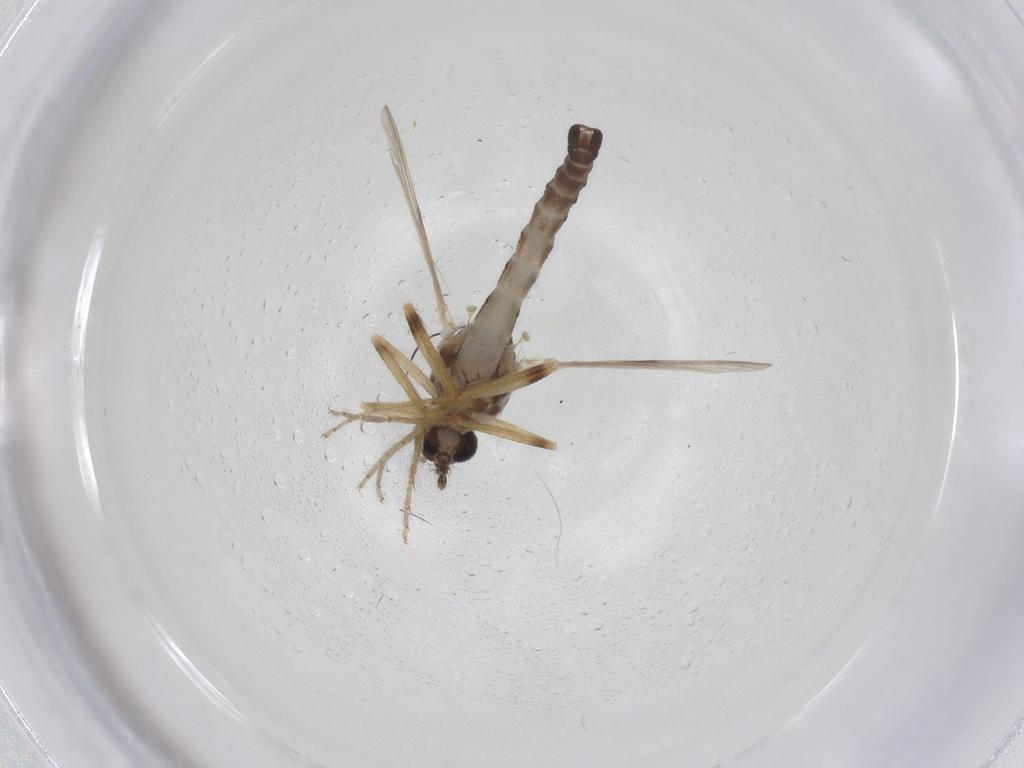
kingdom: Animalia
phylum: Arthropoda
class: Insecta
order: Diptera
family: Ceratopogonidae
